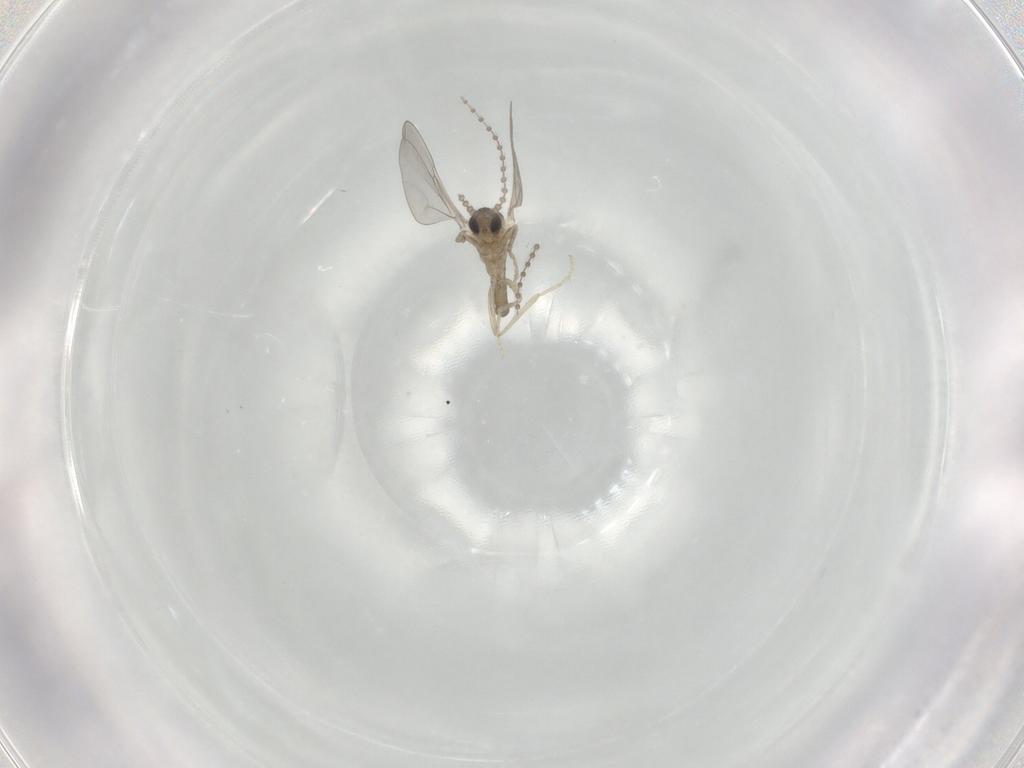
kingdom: Animalia
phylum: Arthropoda
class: Insecta
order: Diptera
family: Cecidomyiidae
